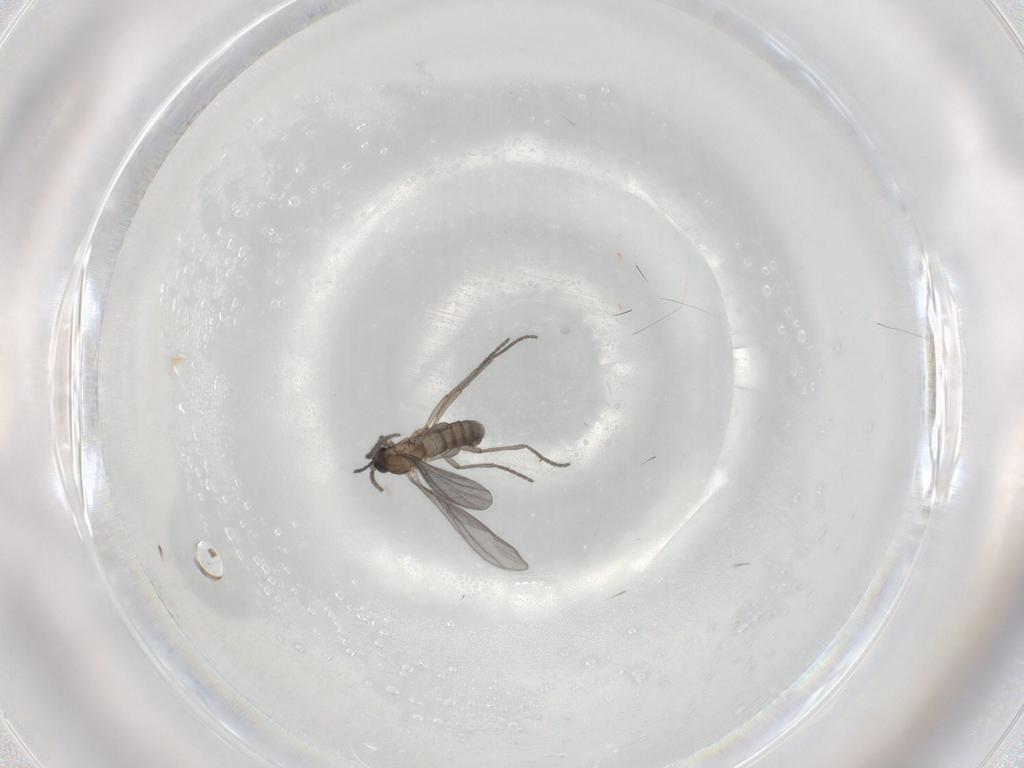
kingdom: Animalia
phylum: Arthropoda
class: Insecta
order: Diptera
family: Sciaridae
